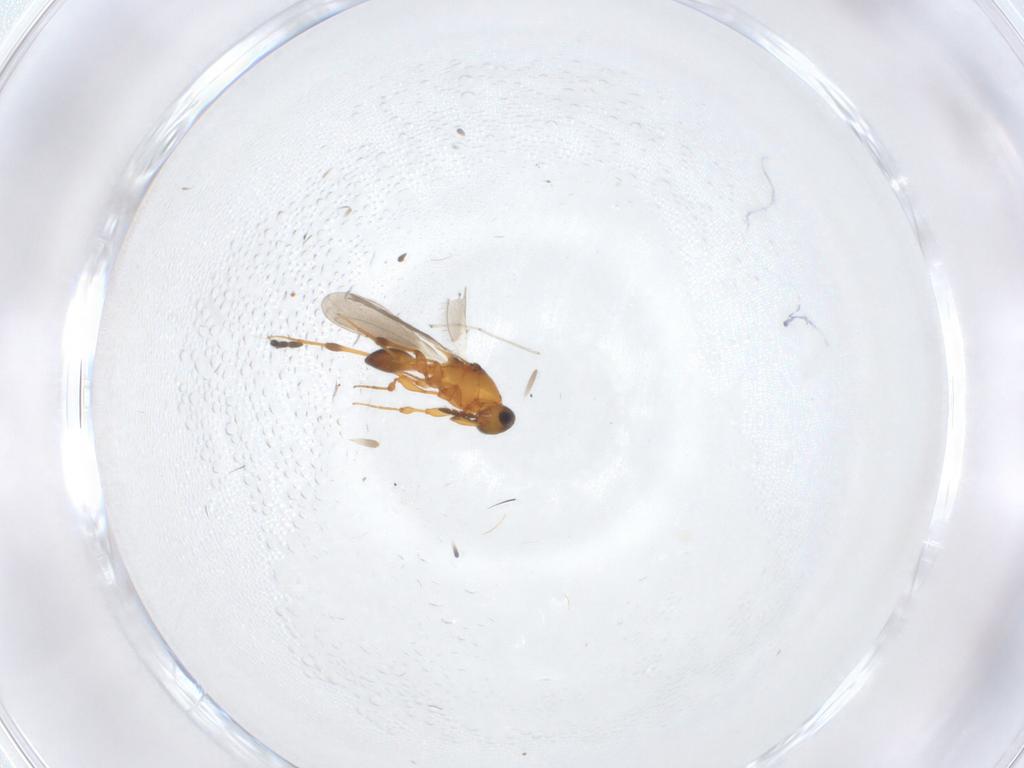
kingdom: Animalia
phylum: Arthropoda
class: Insecta
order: Hymenoptera
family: Platygastridae
